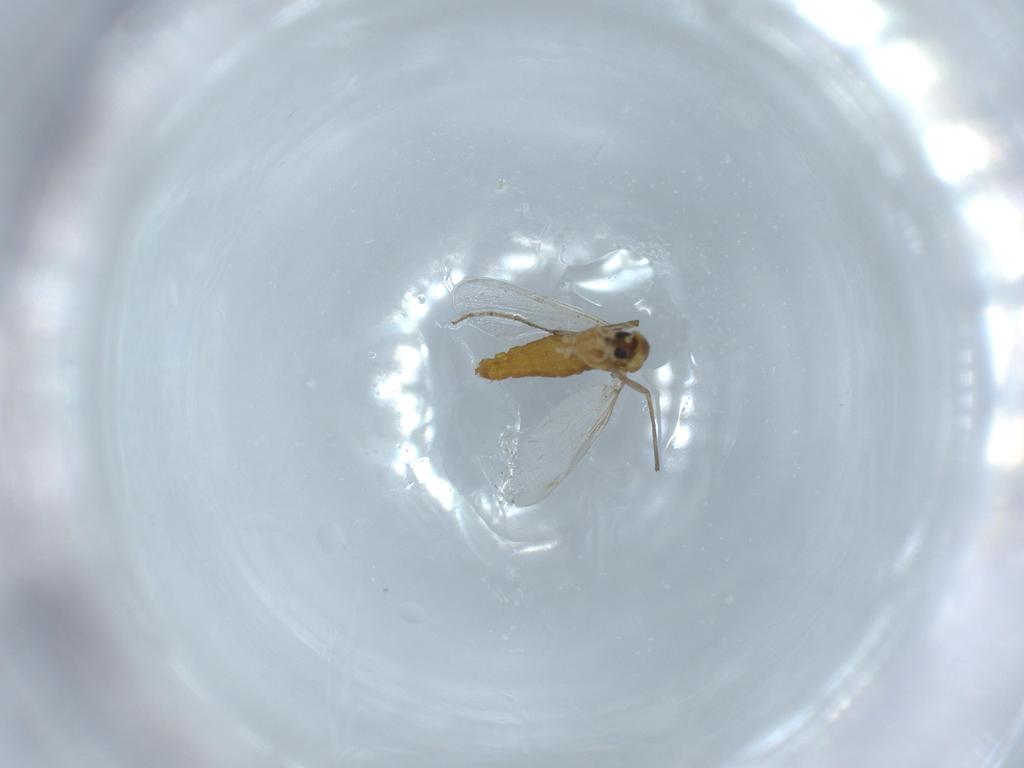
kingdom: Animalia
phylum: Arthropoda
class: Insecta
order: Diptera
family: Chironomidae
